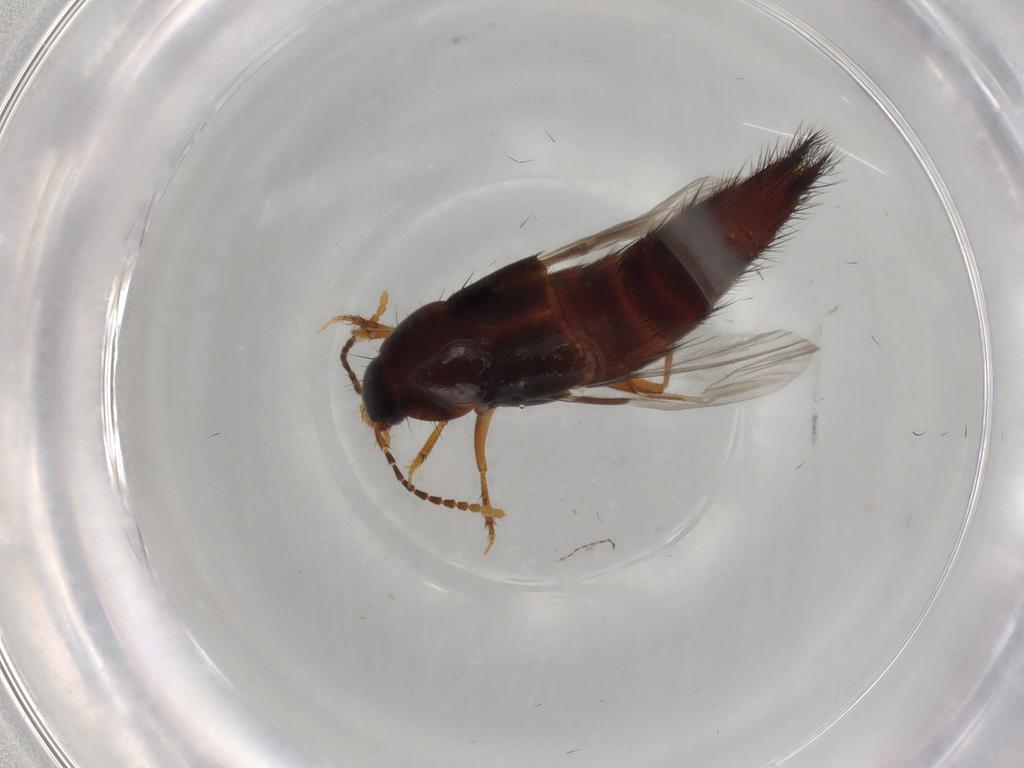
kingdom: Animalia
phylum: Arthropoda
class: Insecta
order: Coleoptera
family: Staphylinidae
